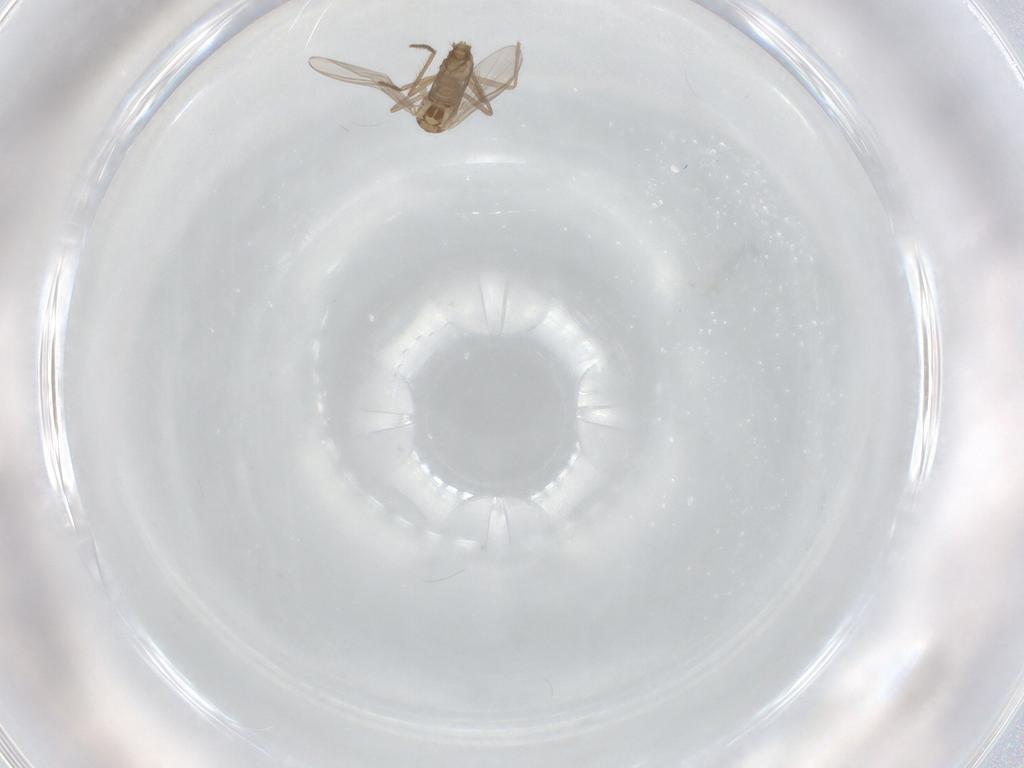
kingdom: Animalia
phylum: Arthropoda
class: Insecta
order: Diptera
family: Chironomidae
